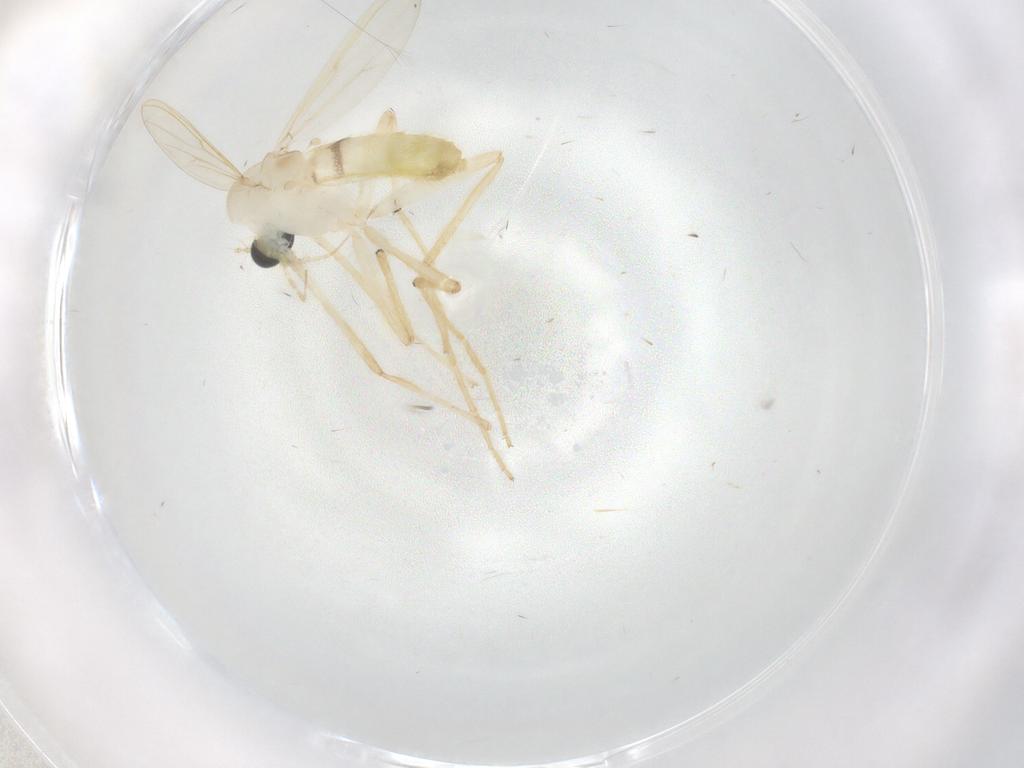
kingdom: Animalia
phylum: Arthropoda
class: Insecta
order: Diptera
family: Chironomidae
